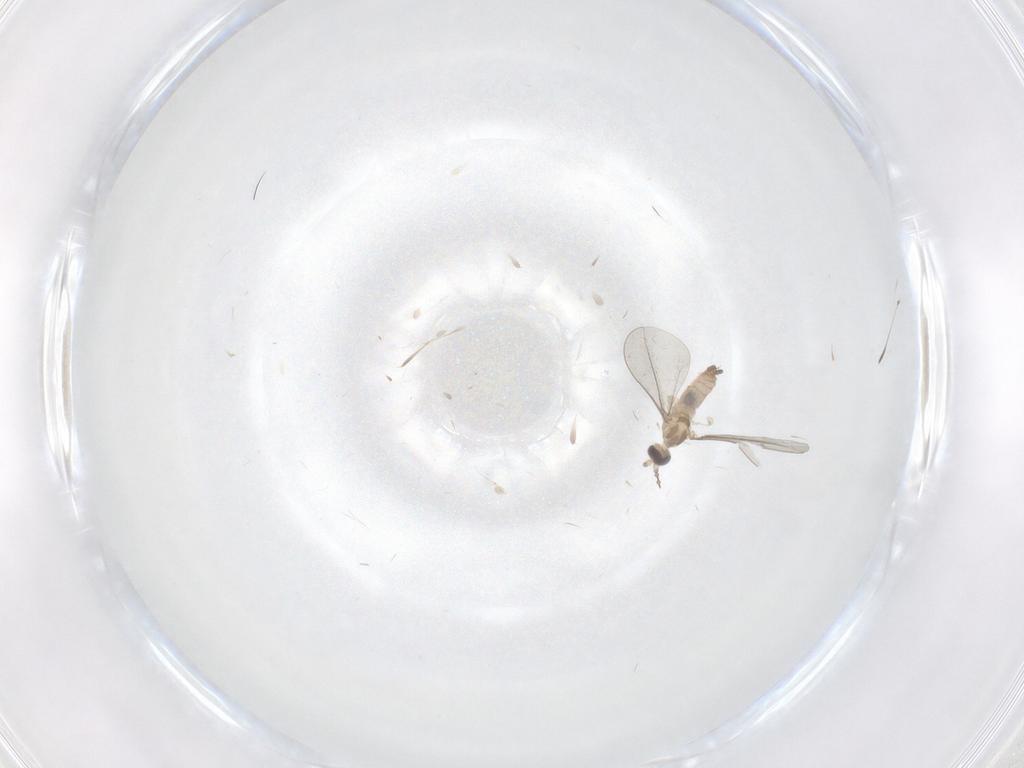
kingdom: Animalia
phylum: Arthropoda
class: Insecta
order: Diptera
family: Cecidomyiidae
